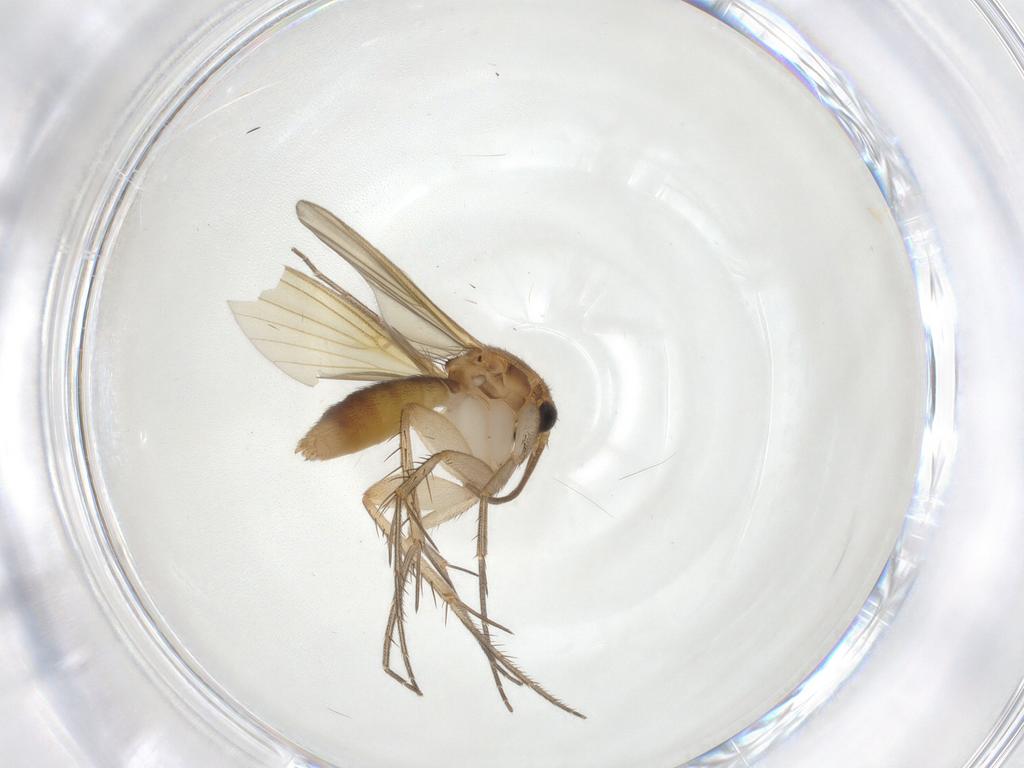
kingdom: Animalia
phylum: Arthropoda
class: Insecta
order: Diptera
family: Mycetophilidae
